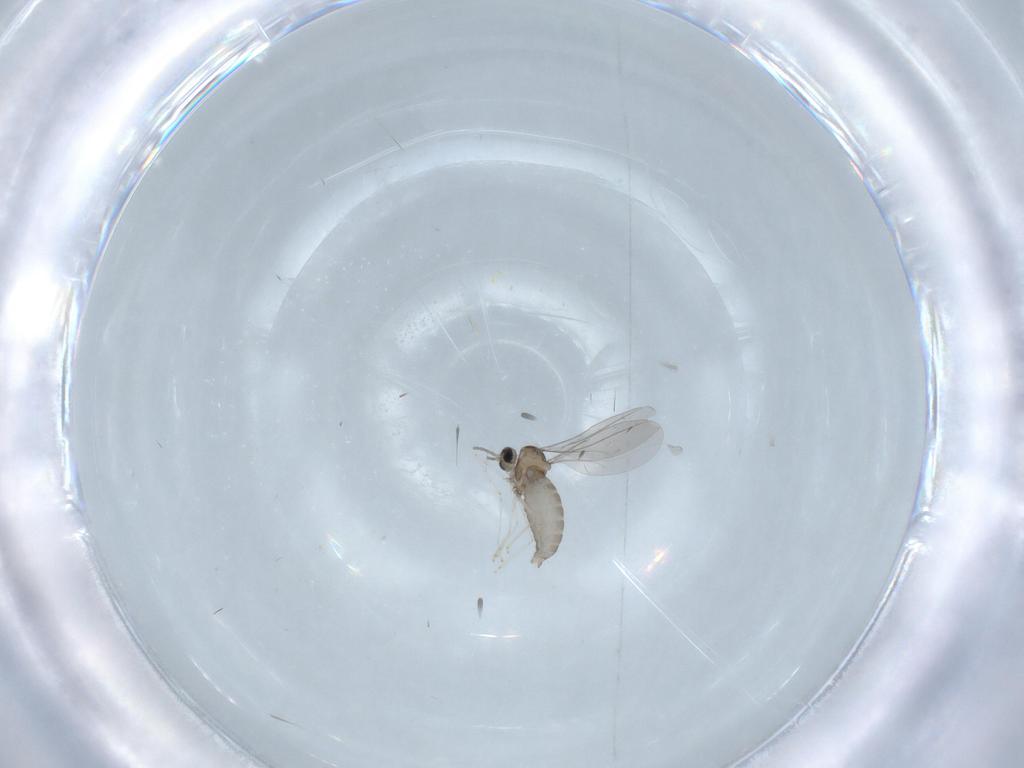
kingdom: Animalia
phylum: Arthropoda
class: Insecta
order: Diptera
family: Cecidomyiidae
